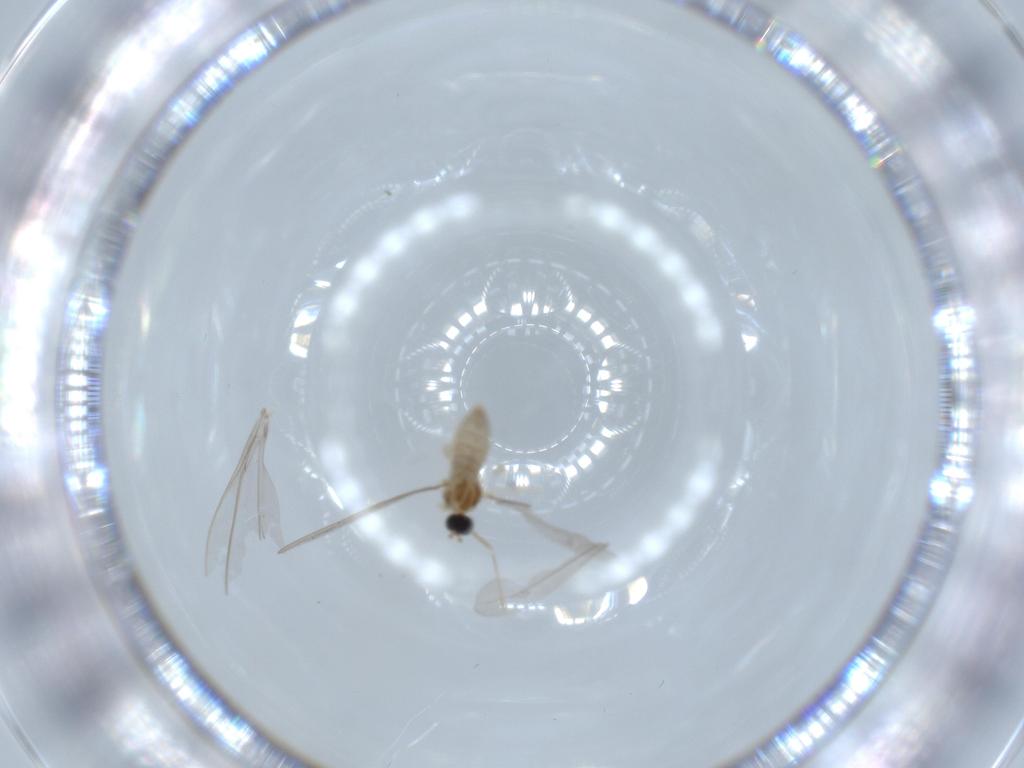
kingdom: Animalia
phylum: Arthropoda
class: Insecta
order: Diptera
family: Cecidomyiidae
